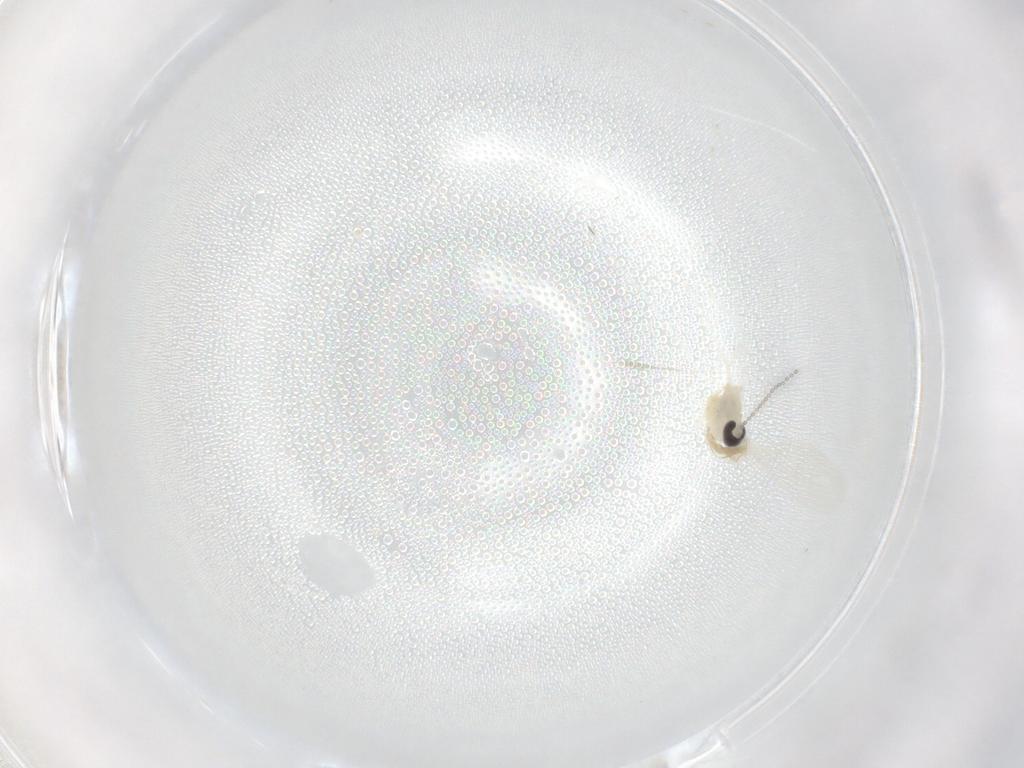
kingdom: Animalia
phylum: Arthropoda
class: Insecta
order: Diptera
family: Cecidomyiidae
